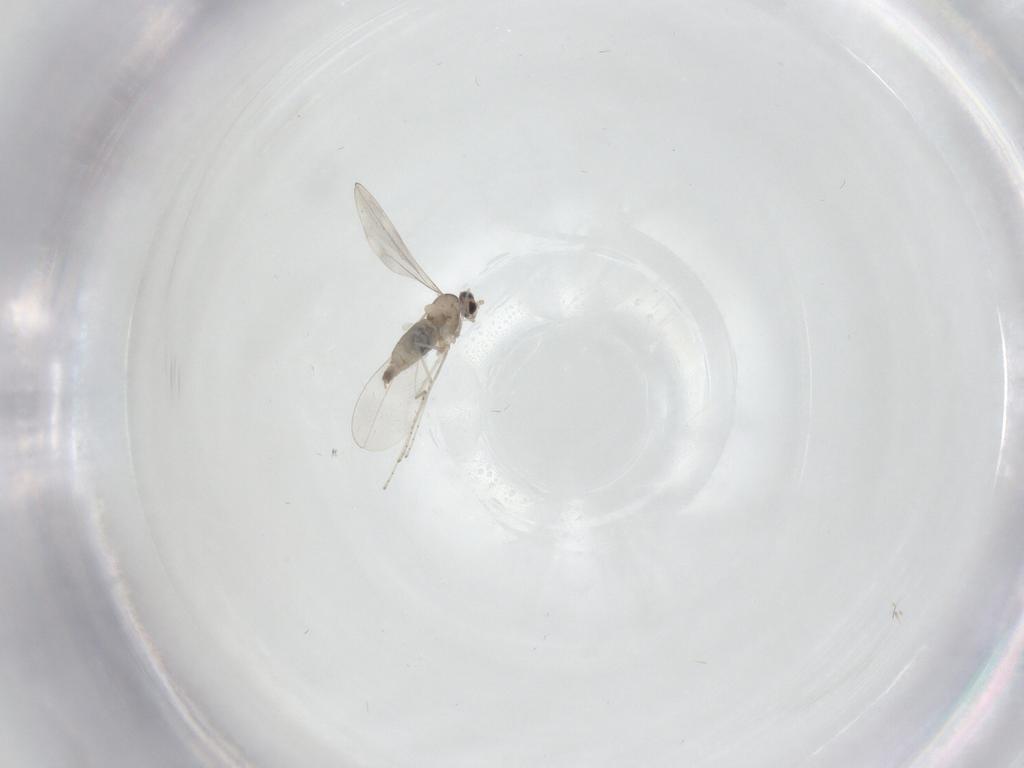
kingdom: Animalia
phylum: Arthropoda
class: Insecta
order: Diptera
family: Cecidomyiidae
